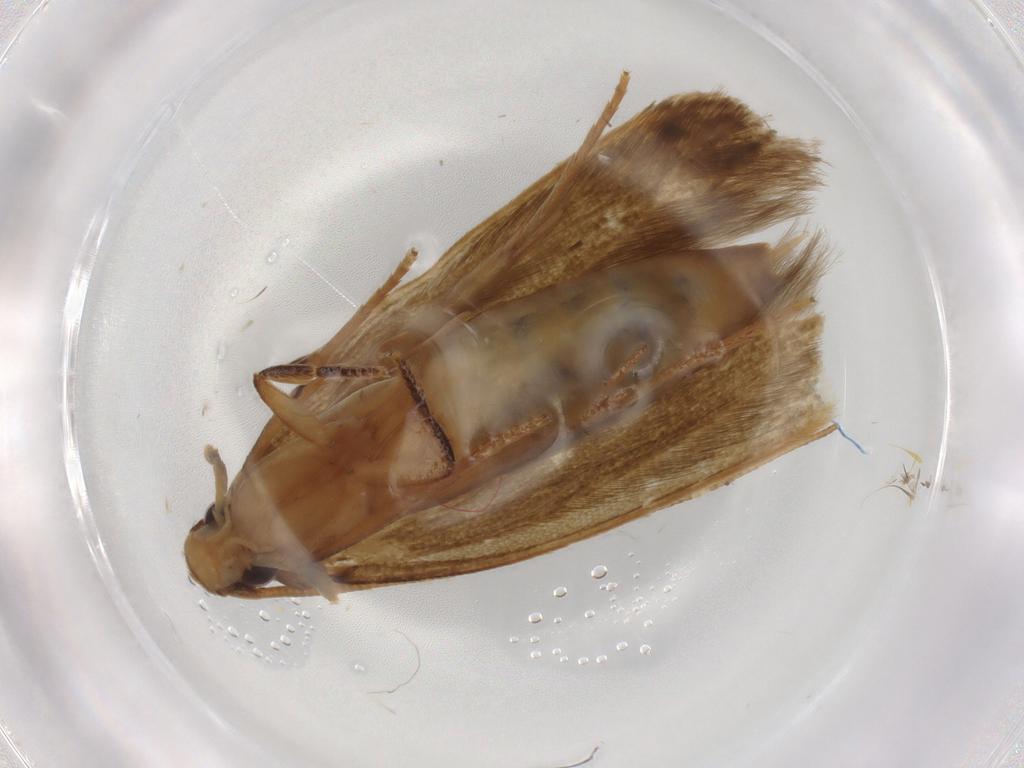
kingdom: Animalia
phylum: Arthropoda
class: Insecta
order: Lepidoptera
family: Tineidae
